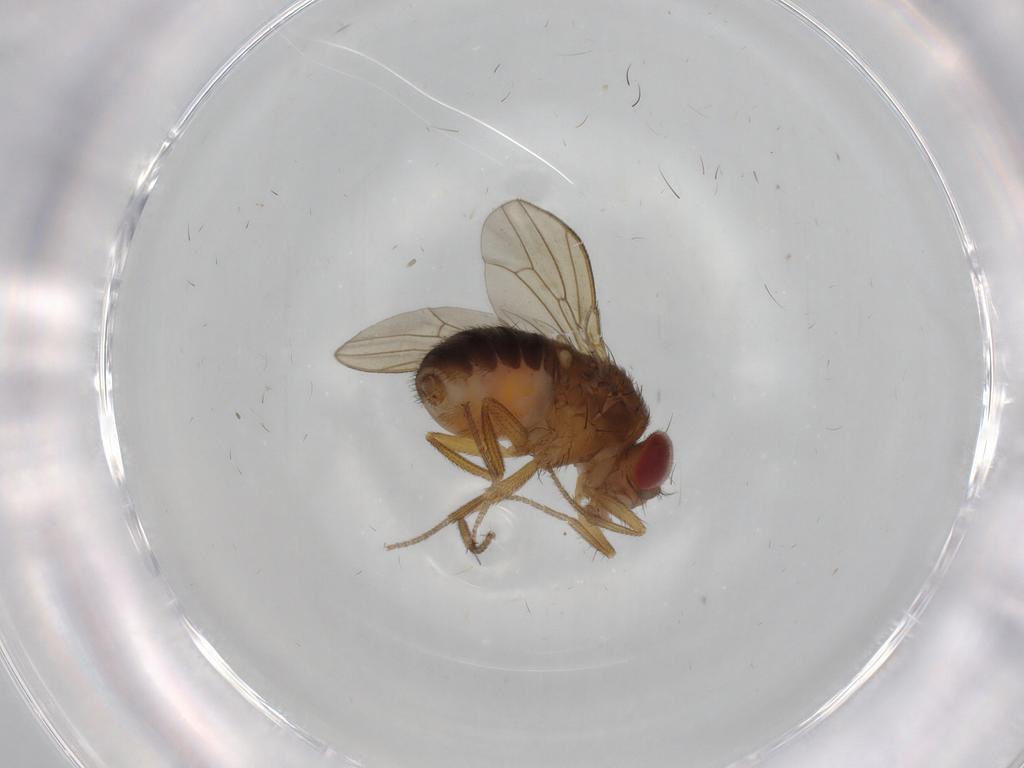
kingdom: Animalia
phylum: Arthropoda
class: Insecta
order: Diptera
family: Drosophilidae
